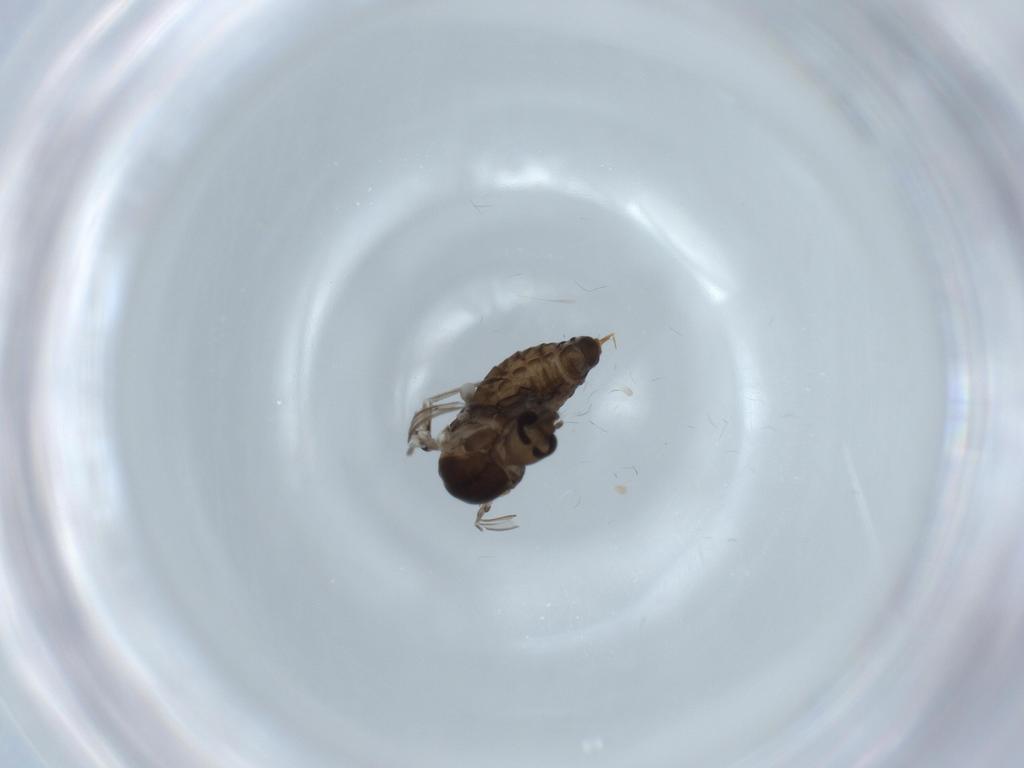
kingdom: Animalia
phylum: Arthropoda
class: Insecta
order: Diptera
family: Psychodidae
